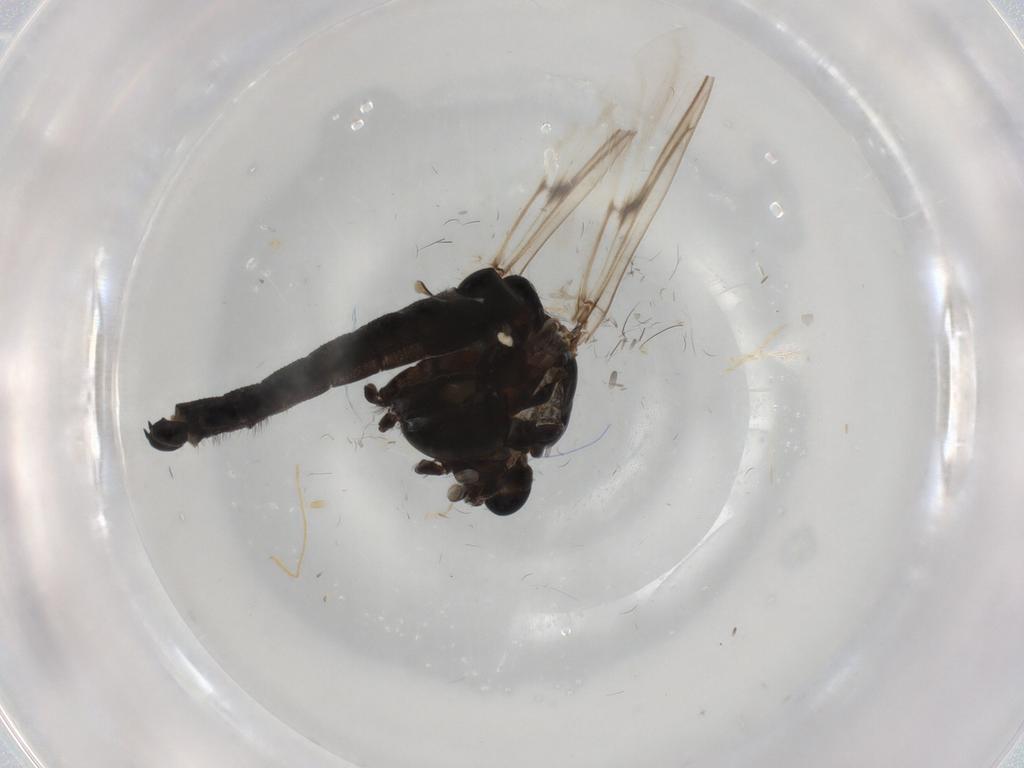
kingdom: Animalia
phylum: Arthropoda
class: Insecta
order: Diptera
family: Chironomidae
